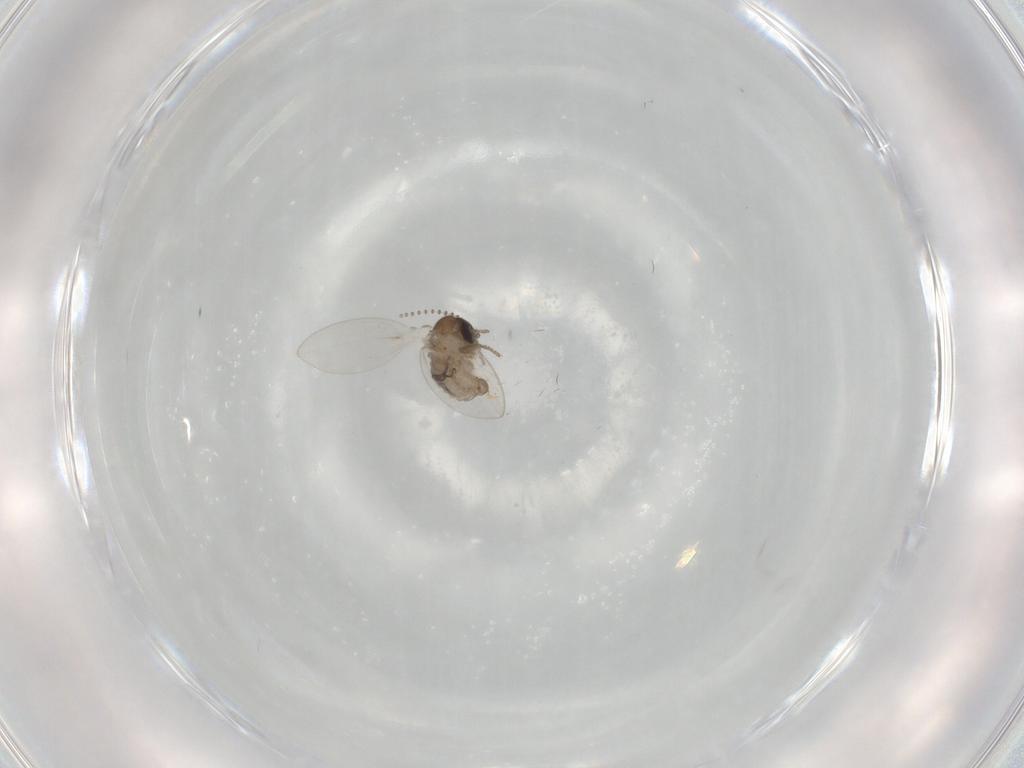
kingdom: Animalia
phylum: Arthropoda
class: Insecta
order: Diptera
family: Psychodidae
